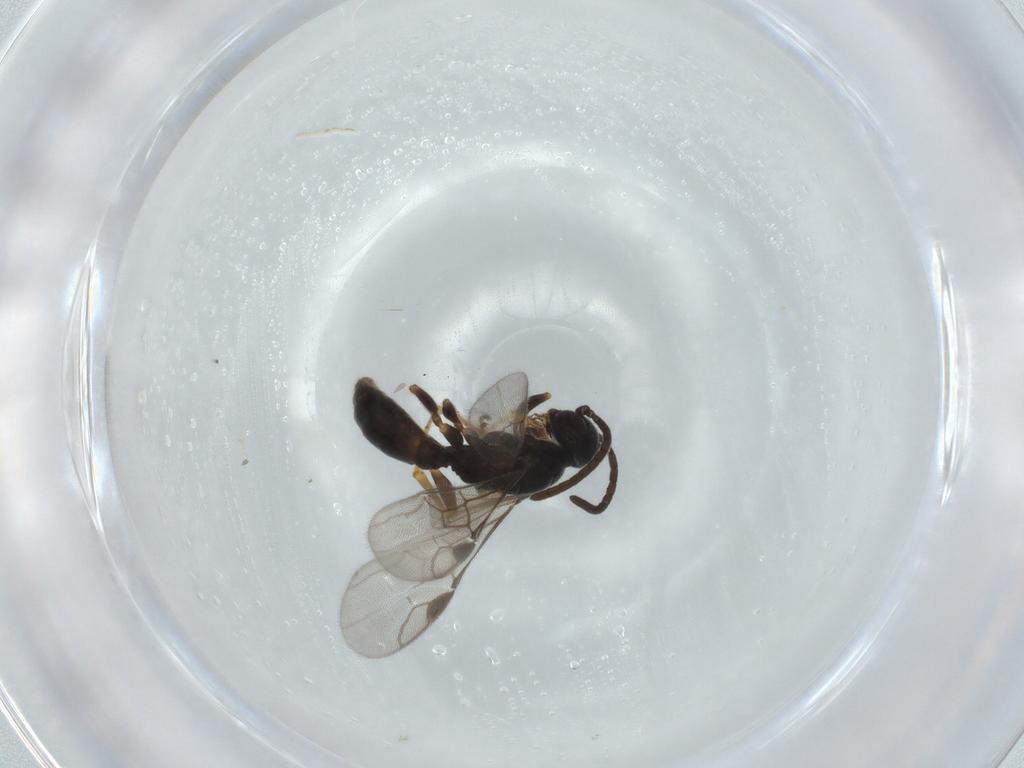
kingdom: Animalia
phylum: Arthropoda
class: Insecta
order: Hymenoptera
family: Sierolomorphidae
